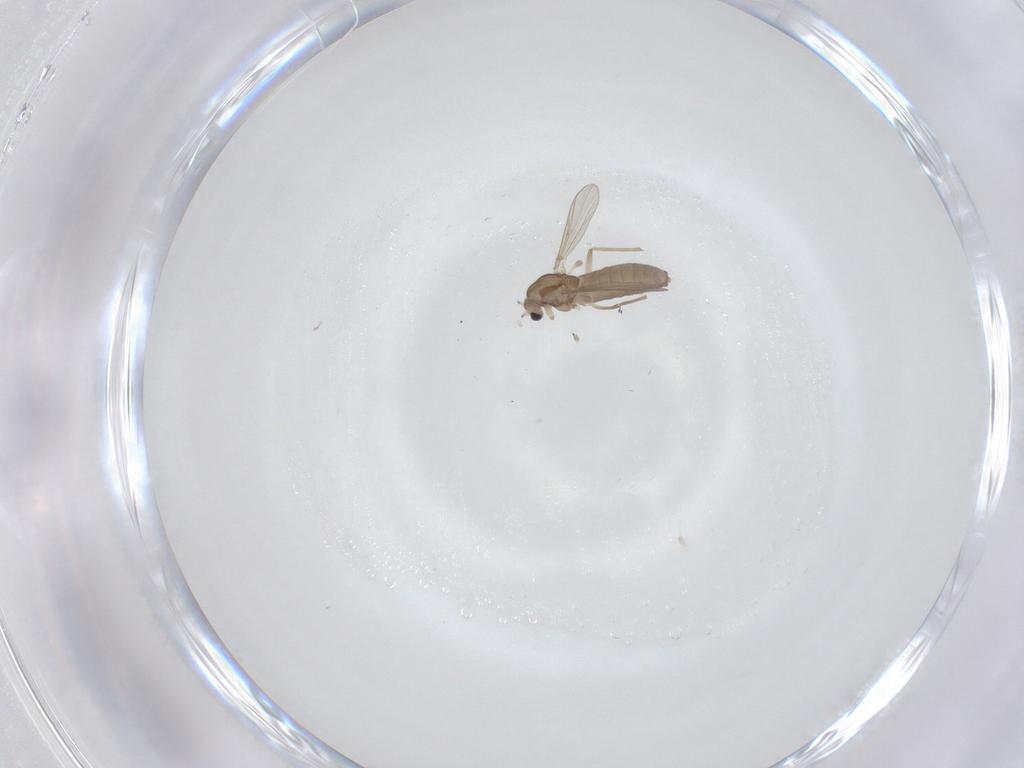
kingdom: Animalia
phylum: Arthropoda
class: Insecta
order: Diptera
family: Chironomidae
